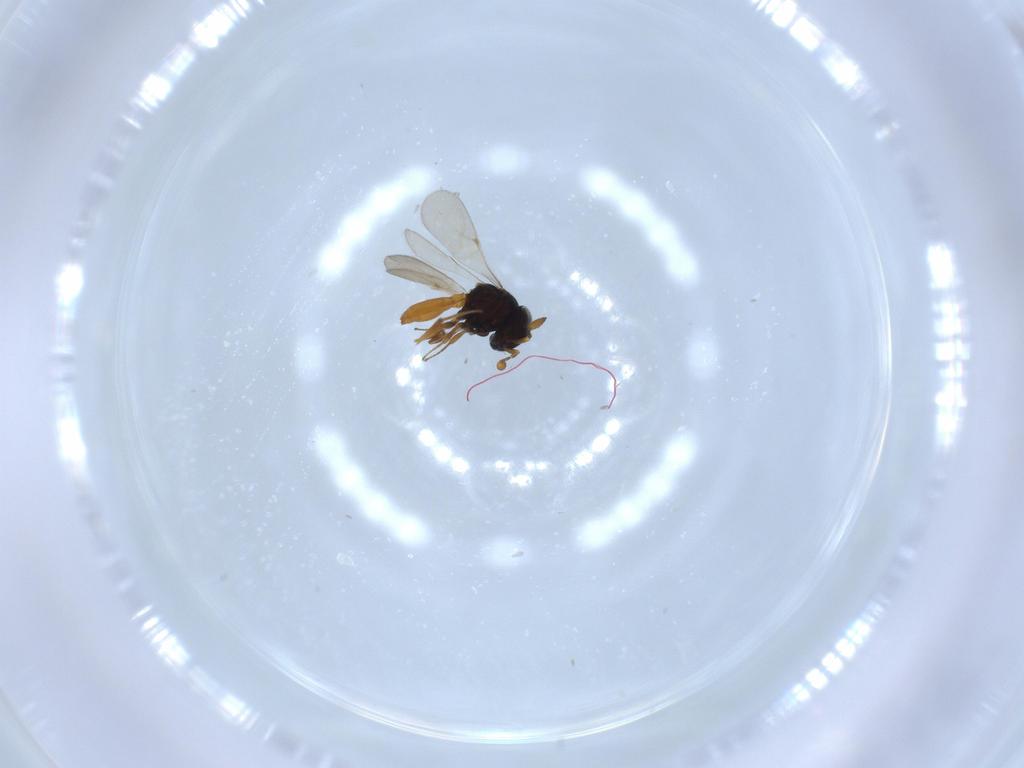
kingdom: Animalia
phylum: Arthropoda
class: Insecta
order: Hymenoptera
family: Scelionidae
